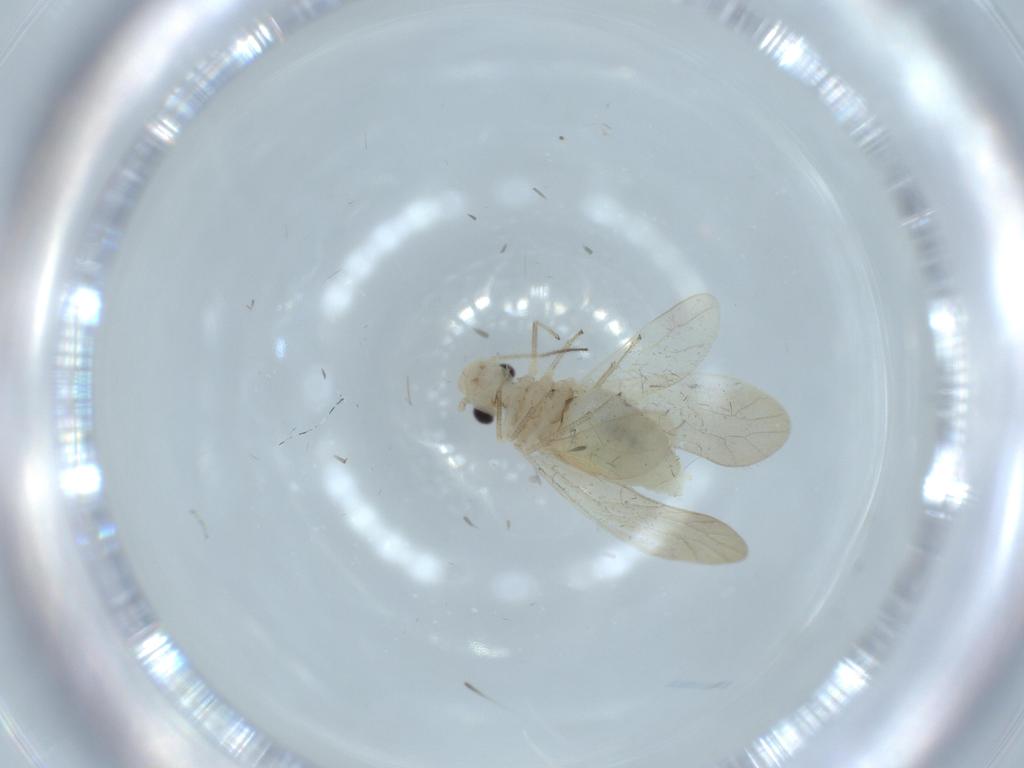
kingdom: Animalia
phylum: Arthropoda
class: Insecta
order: Psocodea
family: Caeciliusidae
